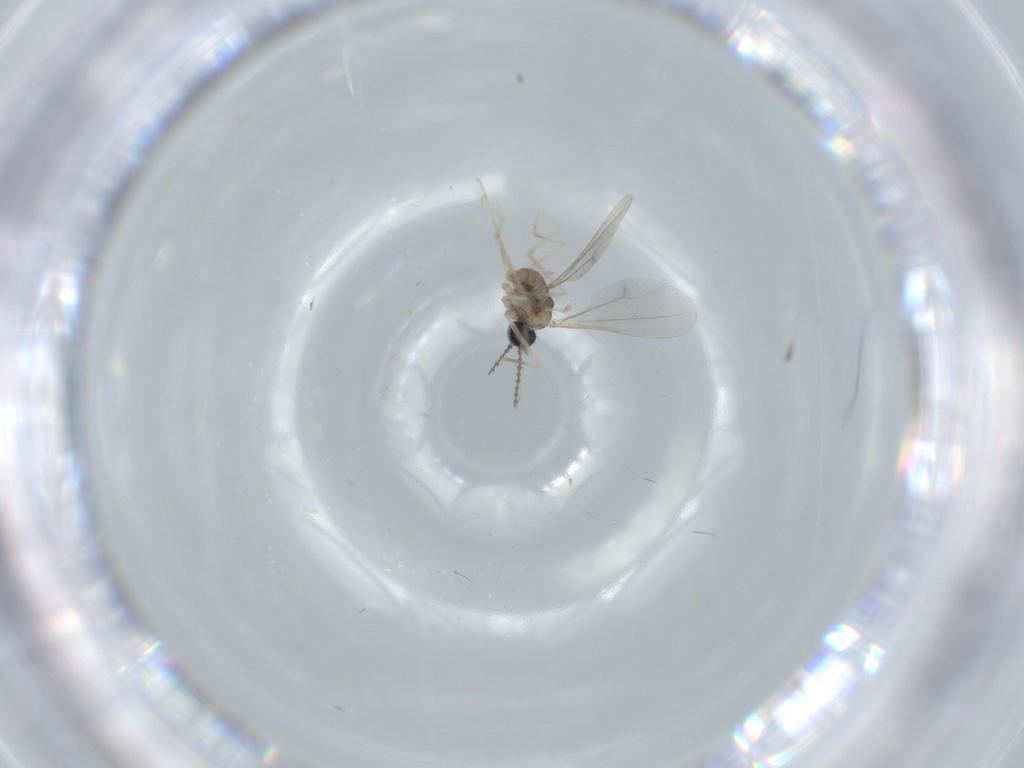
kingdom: Animalia
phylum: Arthropoda
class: Insecta
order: Diptera
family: Cecidomyiidae
